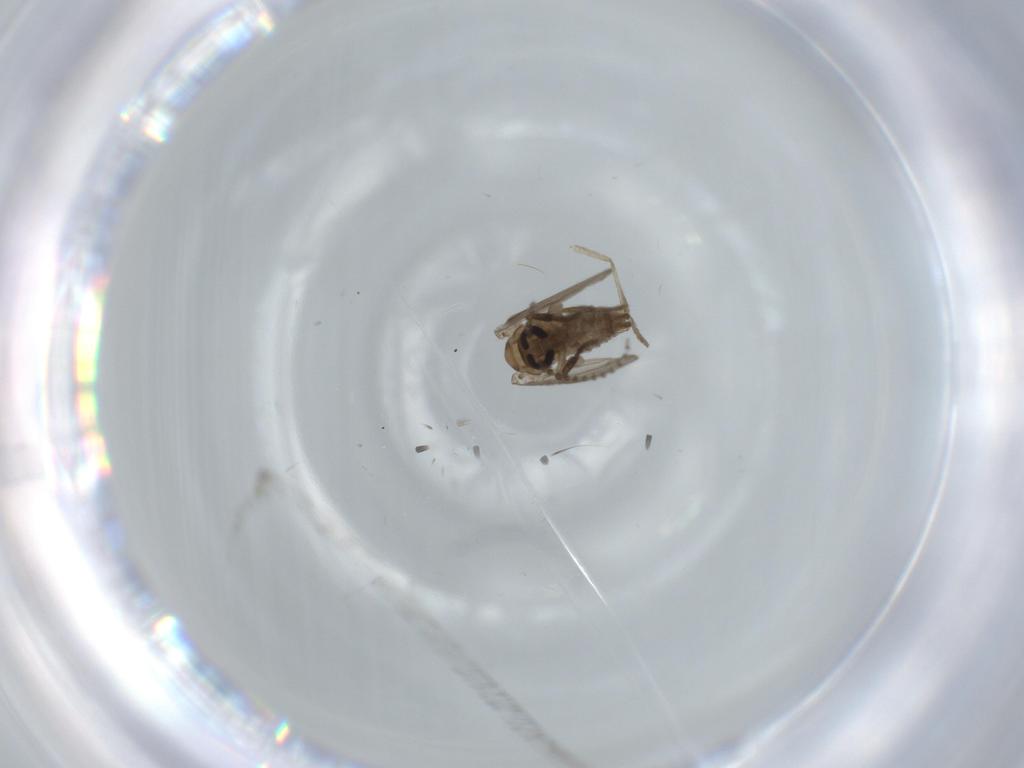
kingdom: Animalia
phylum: Arthropoda
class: Insecta
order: Diptera
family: Psychodidae
